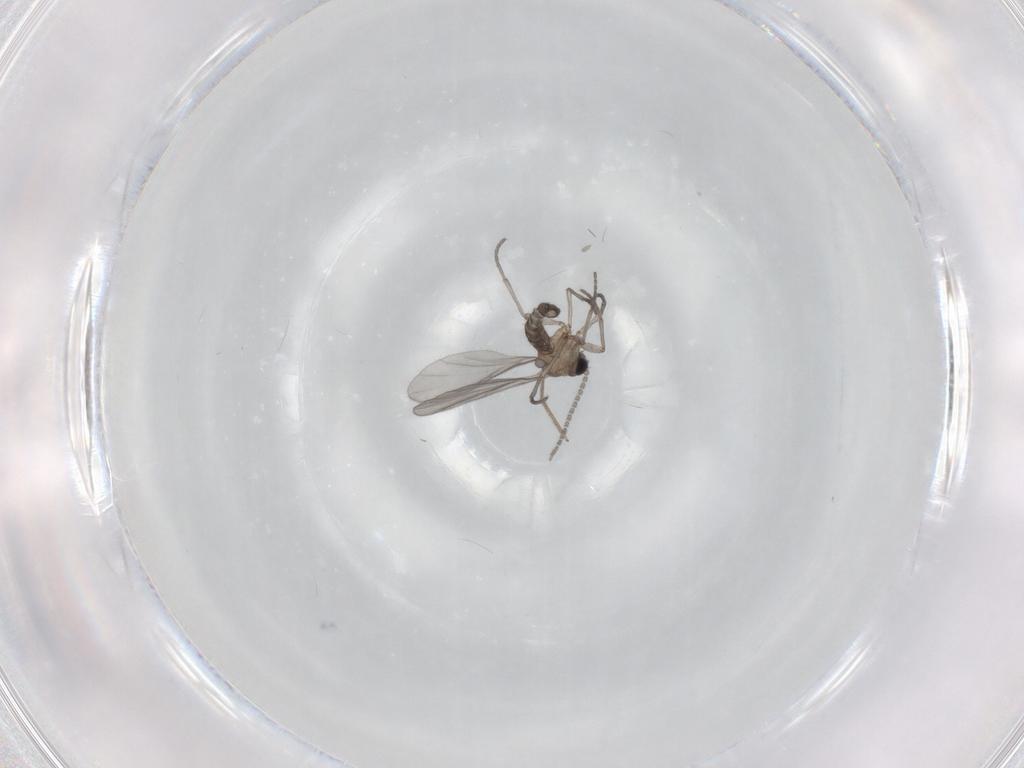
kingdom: Animalia
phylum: Arthropoda
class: Insecta
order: Diptera
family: Sciaridae
